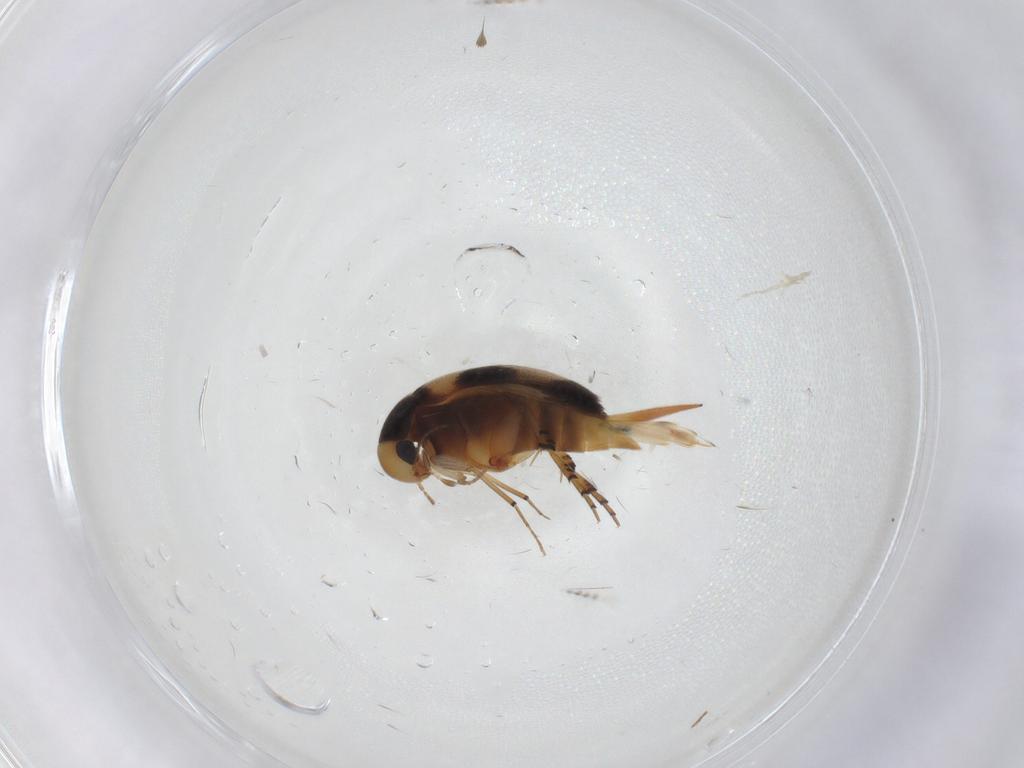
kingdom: Animalia
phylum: Arthropoda
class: Insecta
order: Coleoptera
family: Mordellidae
